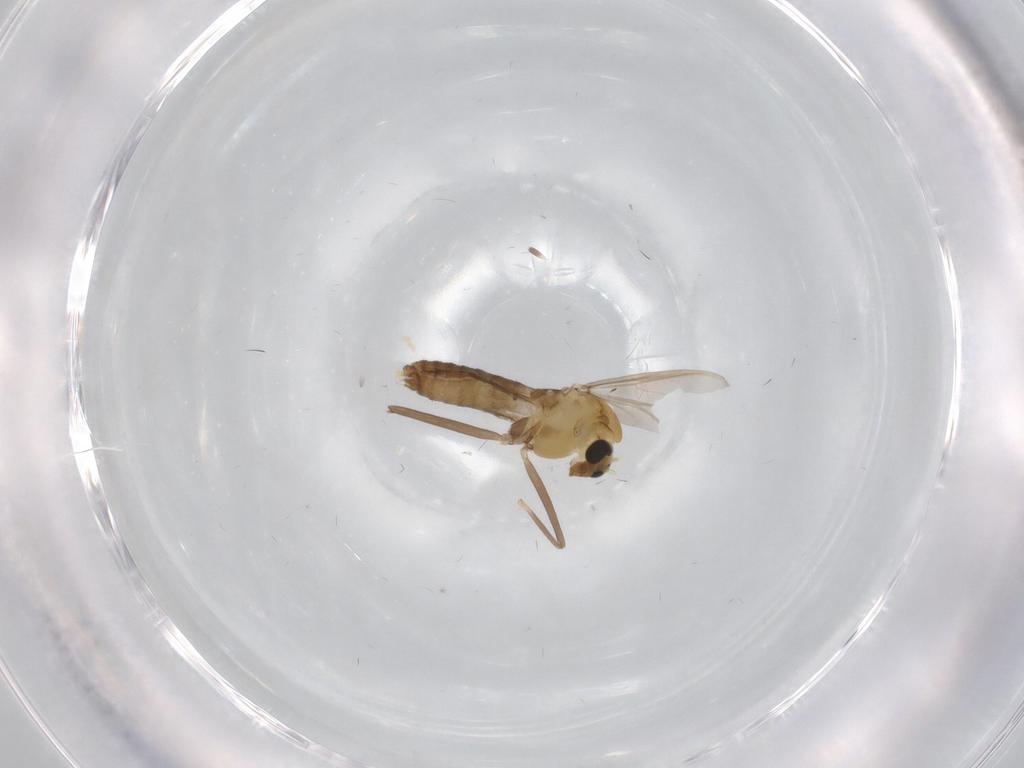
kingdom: Animalia
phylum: Arthropoda
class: Insecta
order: Diptera
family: Chironomidae
